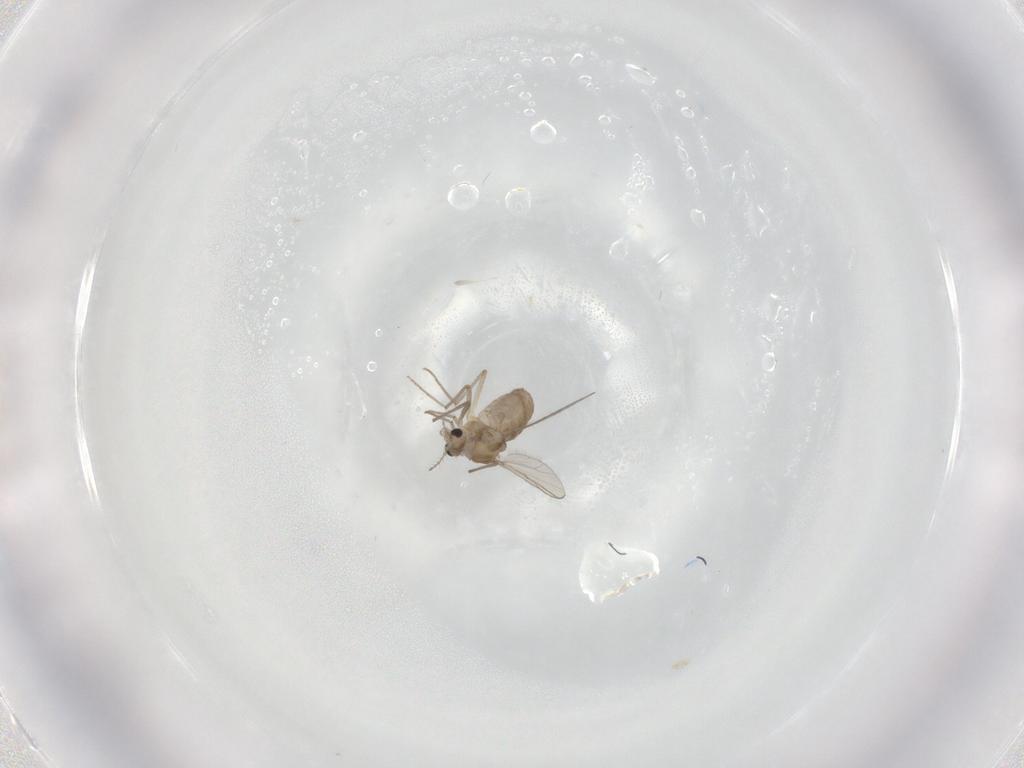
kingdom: Animalia
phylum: Arthropoda
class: Insecta
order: Diptera
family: Chironomidae
